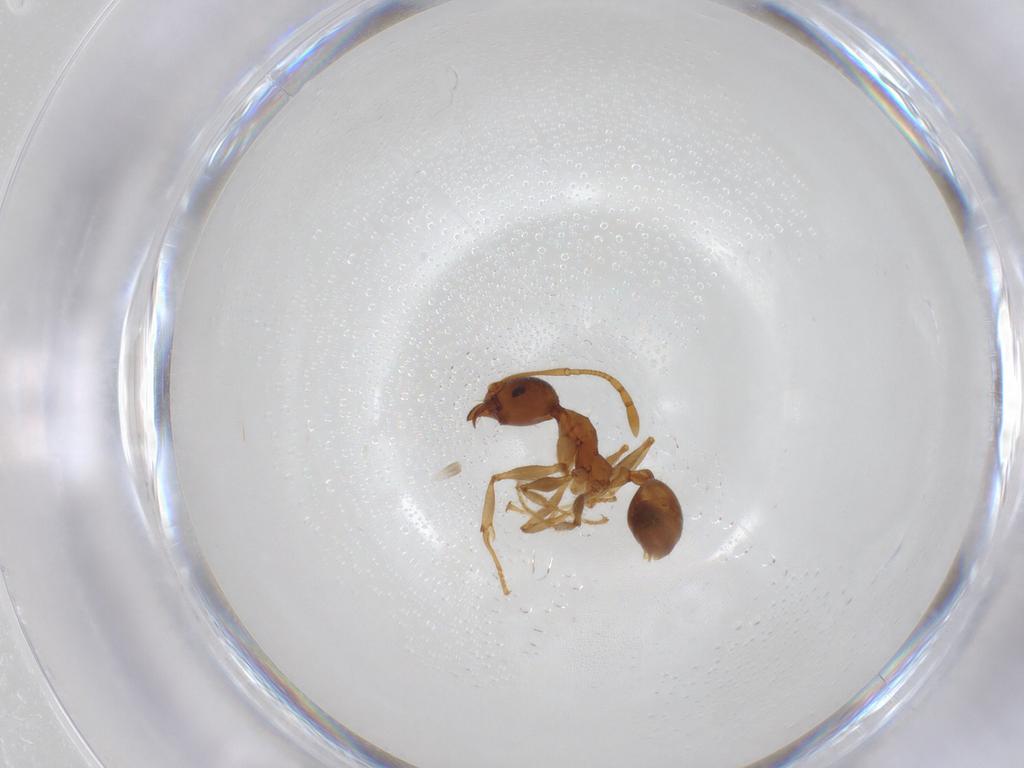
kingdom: Animalia
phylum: Arthropoda
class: Insecta
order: Hymenoptera
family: Formicidae
